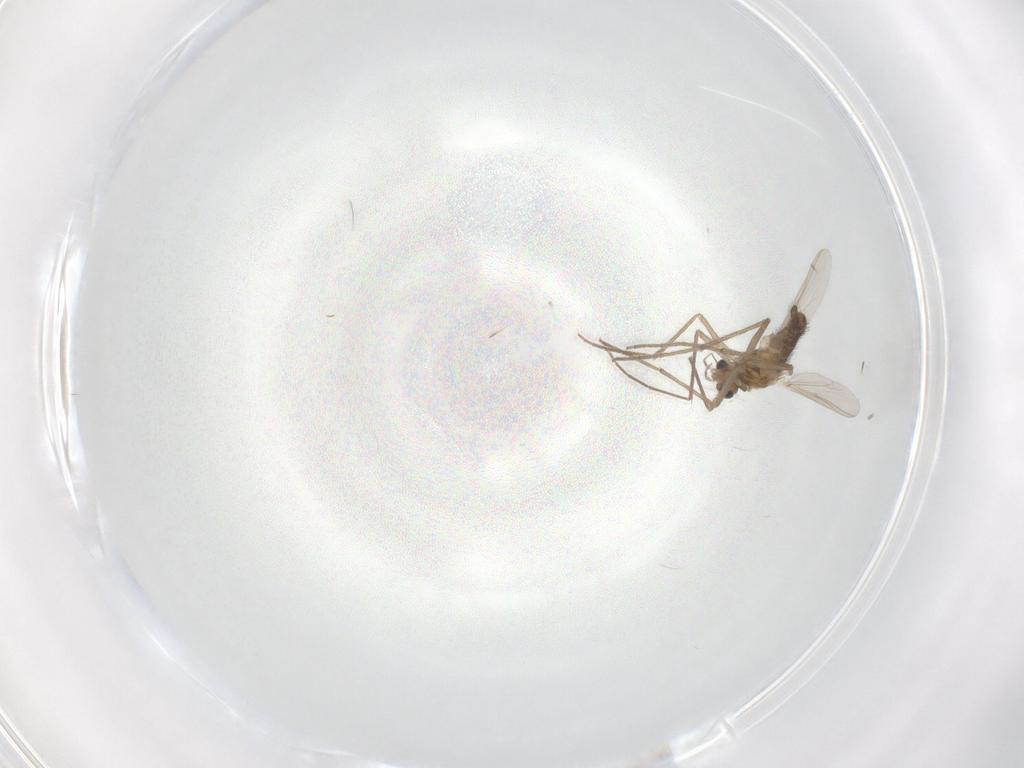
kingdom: Animalia
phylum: Arthropoda
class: Insecta
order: Diptera
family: Chironomidae
